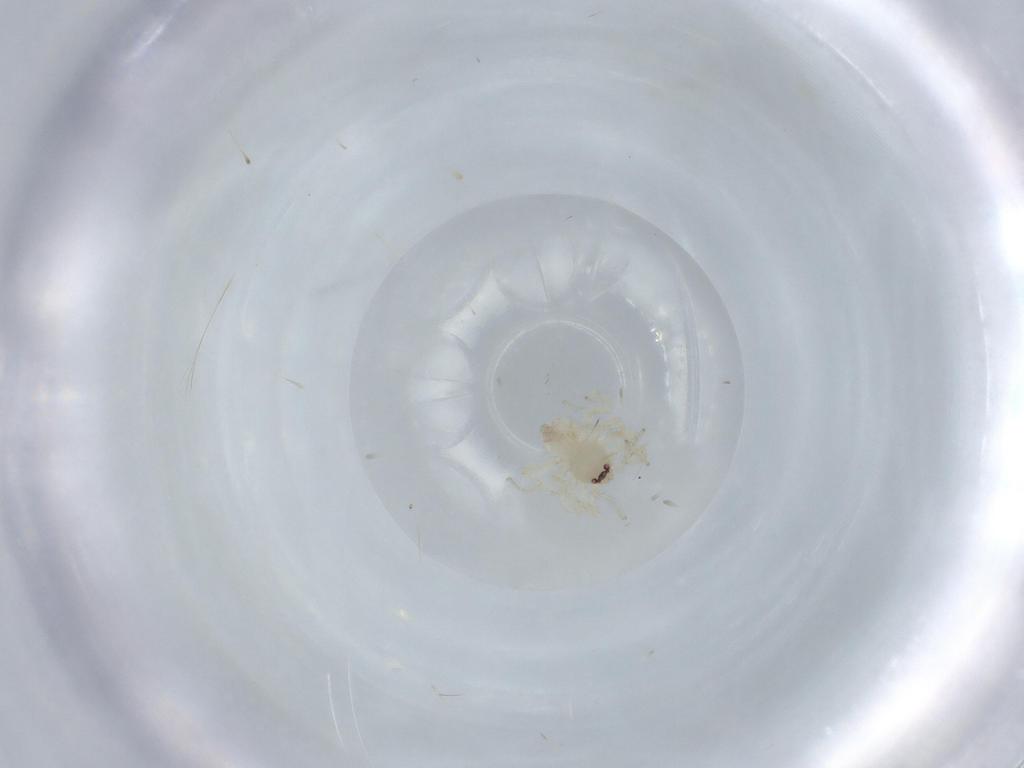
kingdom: Animalia
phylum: Arthropoda
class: Arachnida
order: Araneae
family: Oonopidae
